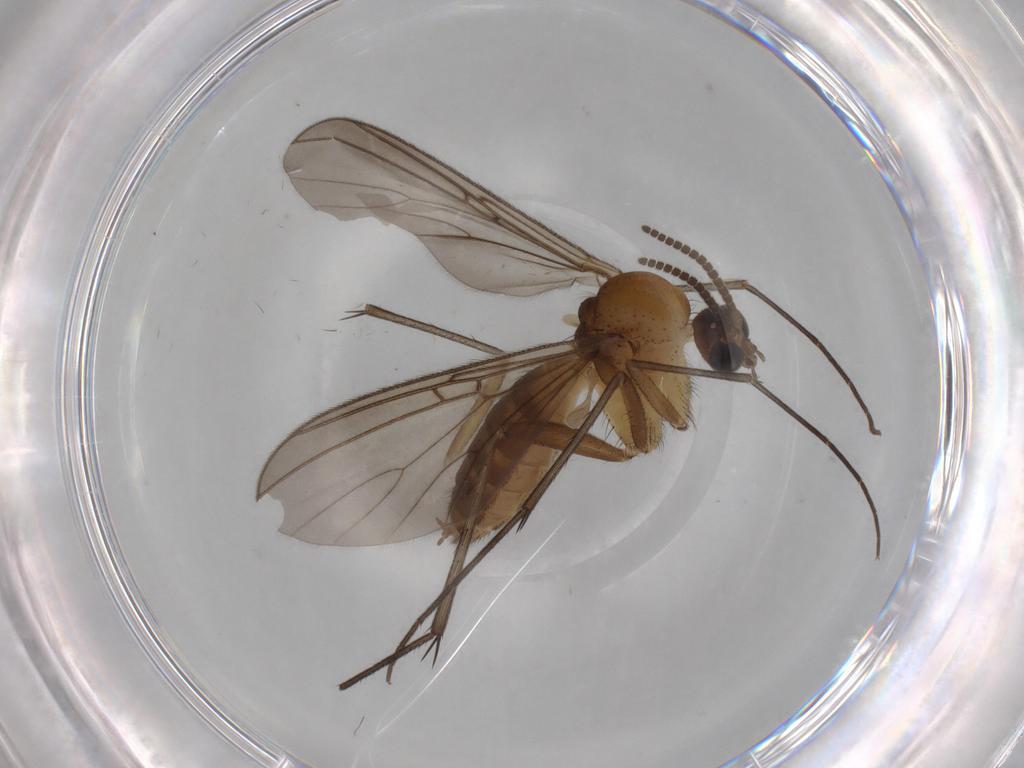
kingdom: Animalia
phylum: Arthropoda
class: Insecta
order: Diptera
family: Mycetophilidae
